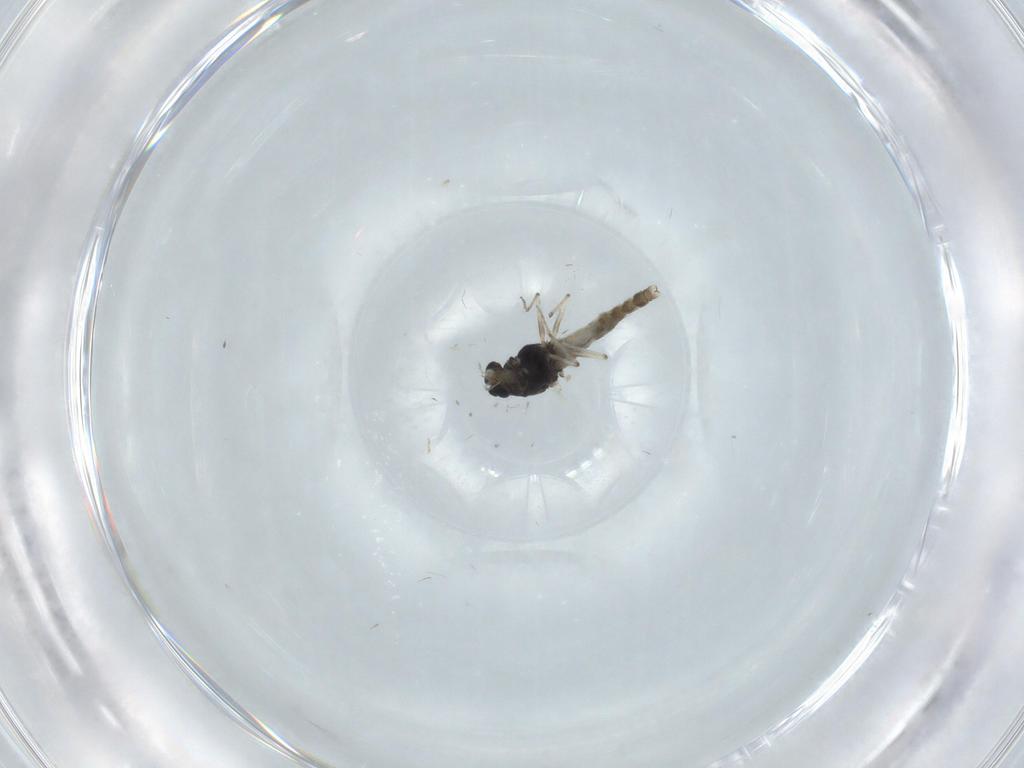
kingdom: Animalia
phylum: Arthropoda
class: Insecta
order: Diptera
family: Chironomidae
